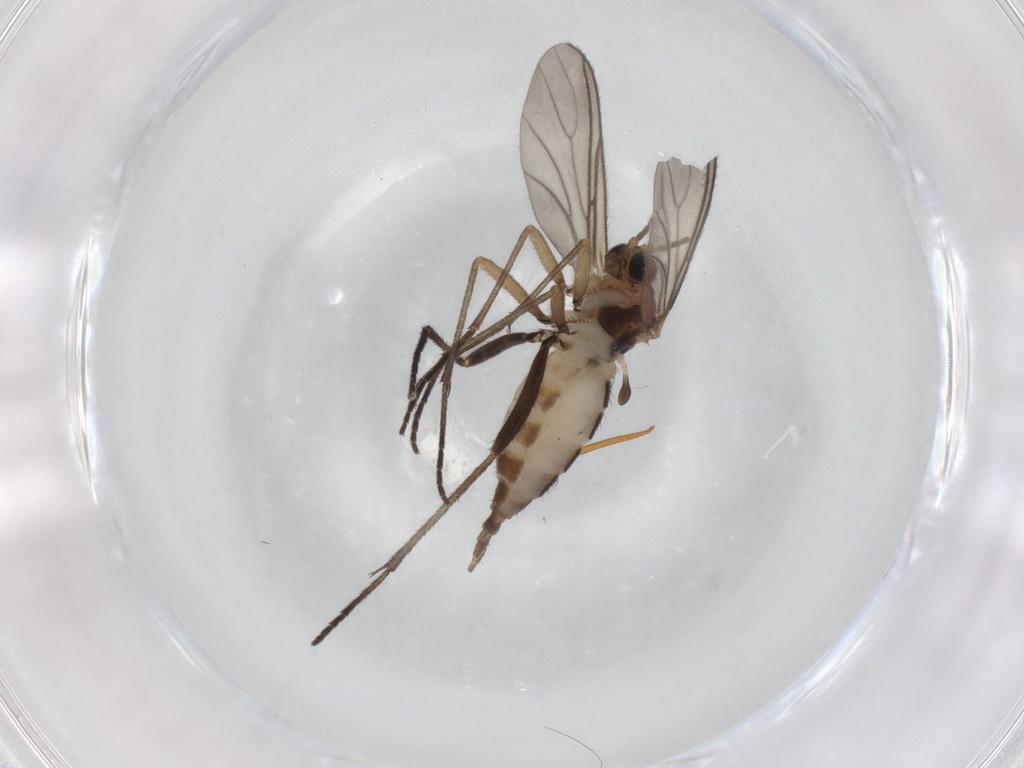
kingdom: Animalia
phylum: Arthropoda
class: Insecta
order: Diptera
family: Sciaridae
